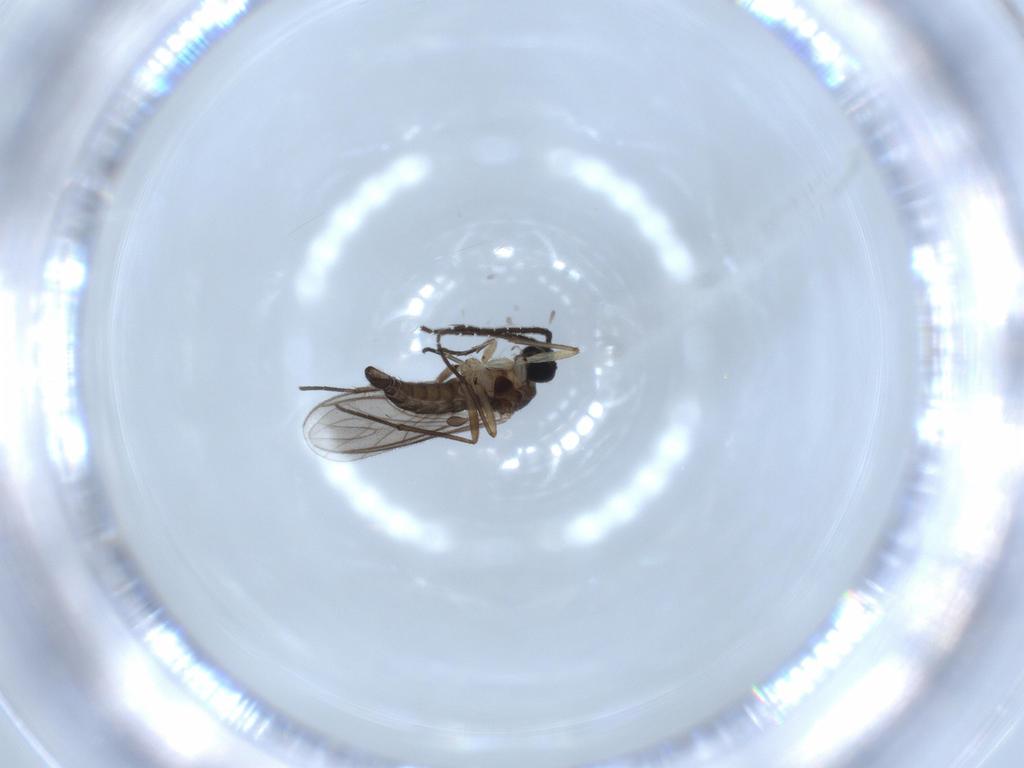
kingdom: Animalia
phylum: Arthropoda
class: Insecta
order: Diptera
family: Sciaridae
